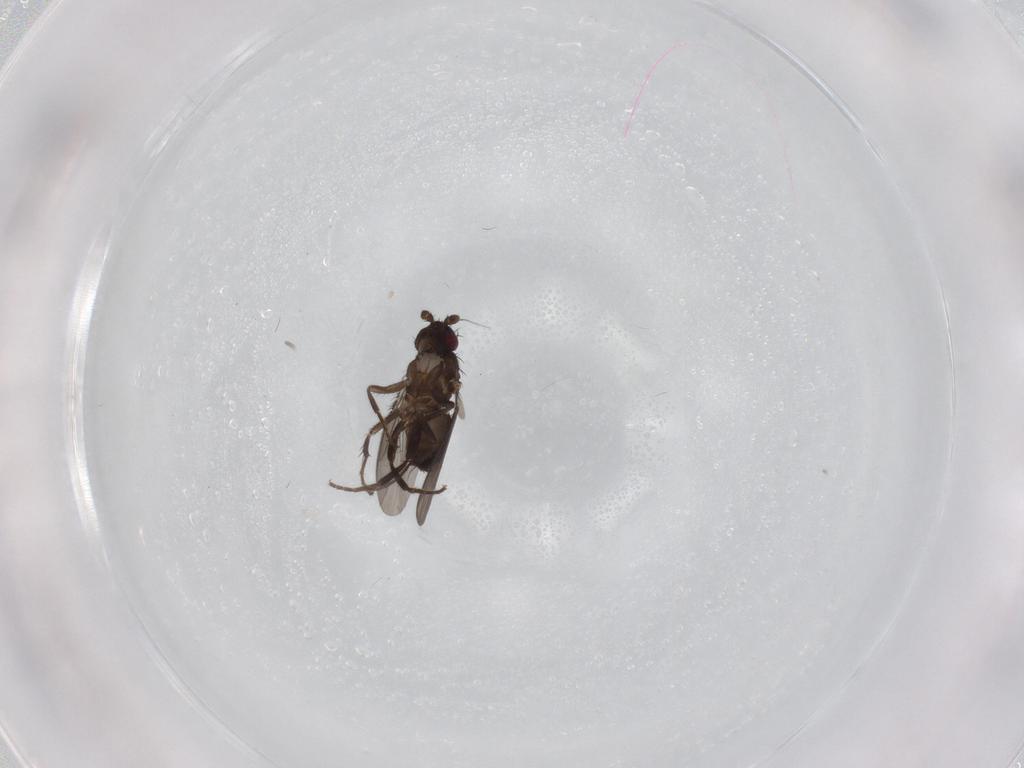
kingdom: Animalia
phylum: Arthropoda
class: Insecta
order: Diptera
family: Sphaeroceridae
